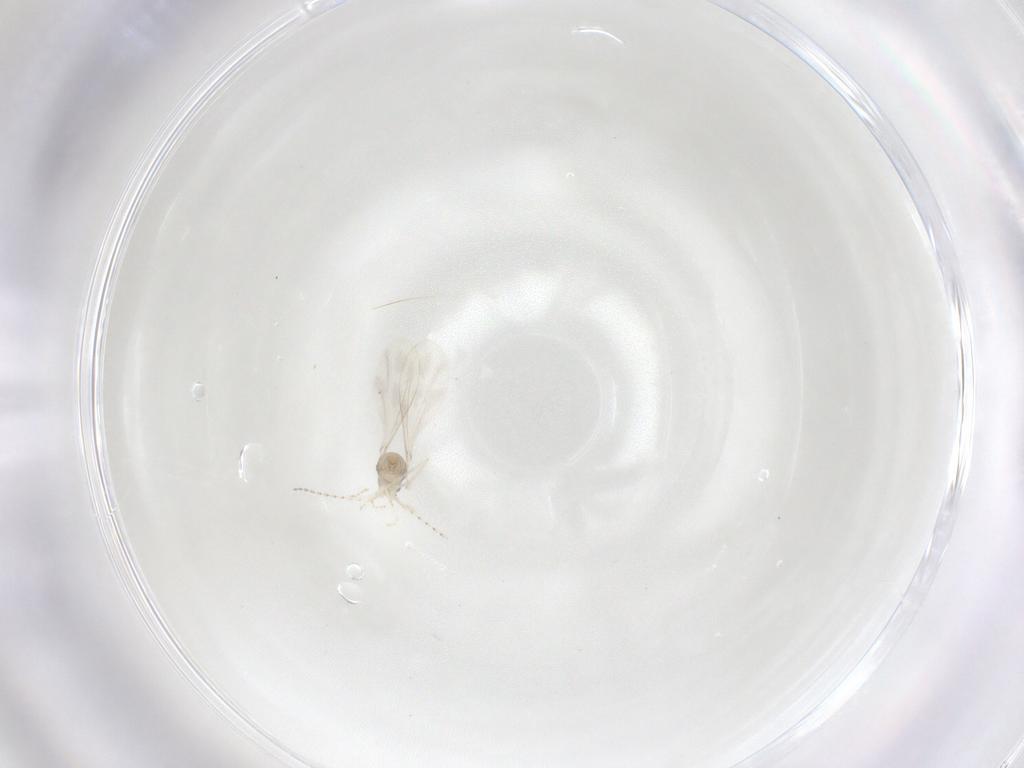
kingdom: Animalia
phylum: Arthropoda
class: Insecta
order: Diptera
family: Cecidomyiidae
